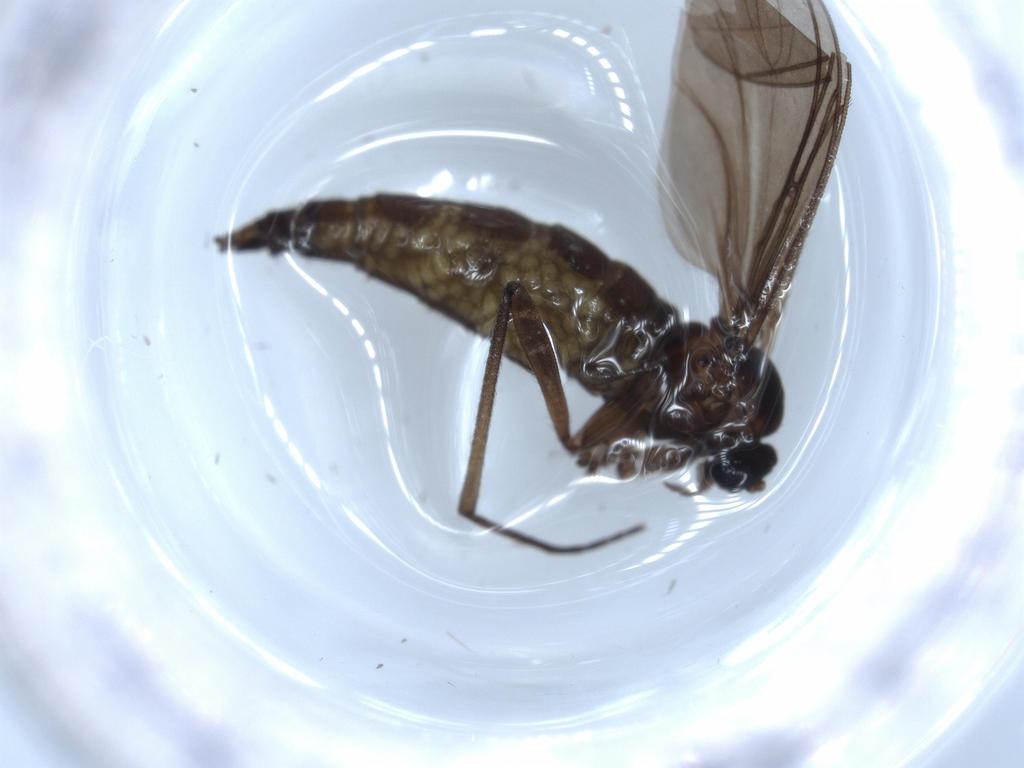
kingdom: Animalia
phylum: Arthropoda
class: Insecta
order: Diptera
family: Sciaridae
